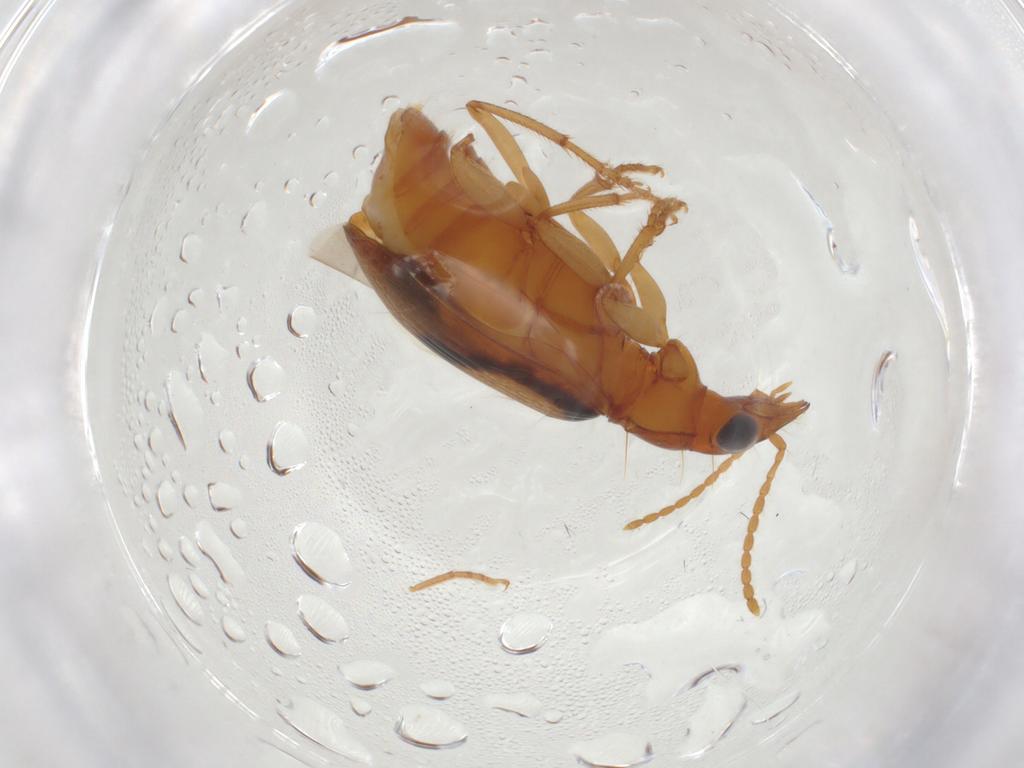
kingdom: Animalia
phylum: Arthropoda
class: Insecta
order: Coleoptera
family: Carabidae
